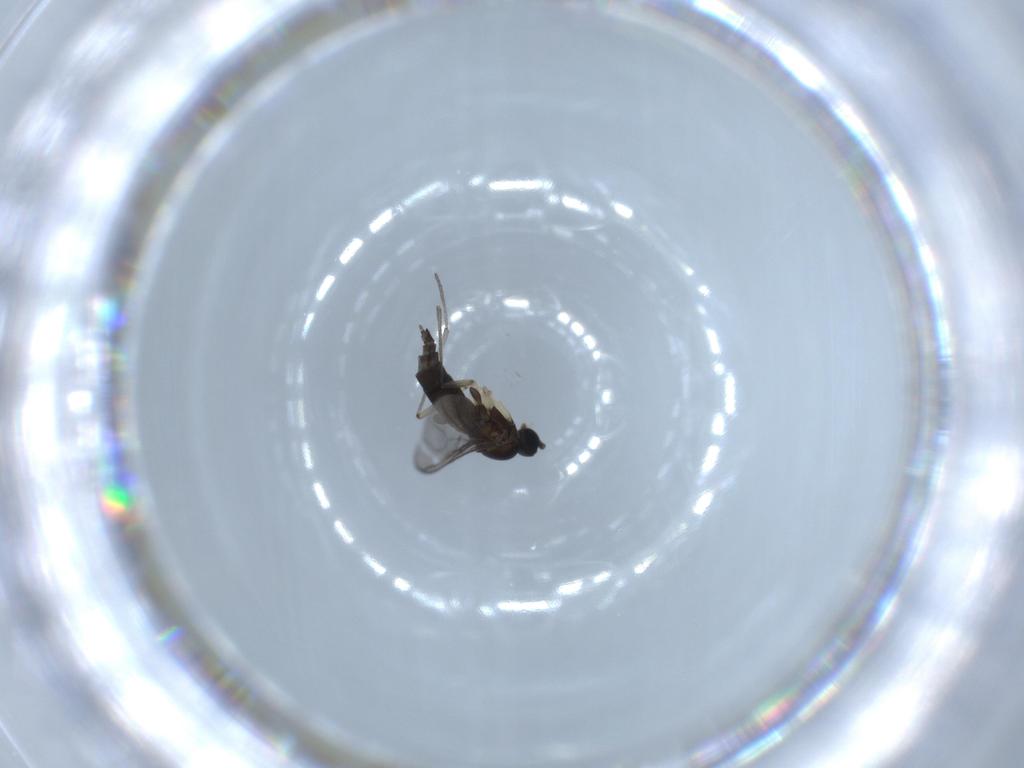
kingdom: Animalia
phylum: Arthropoda
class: Insecta
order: Diptera
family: Sciaridae
